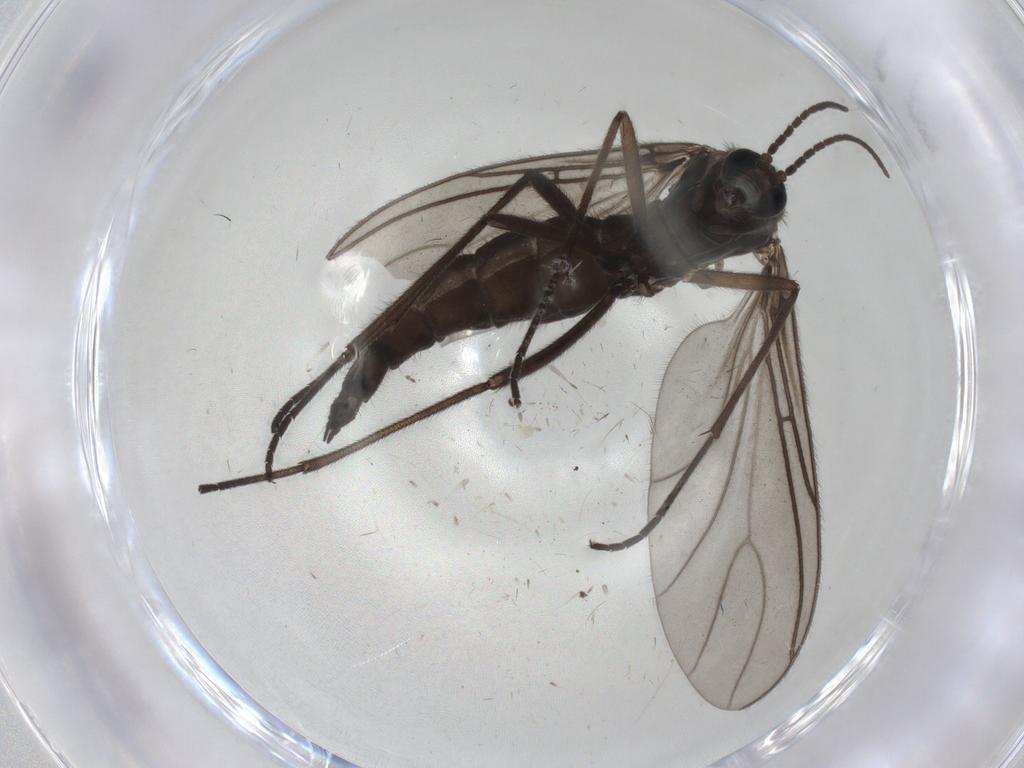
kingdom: Animalia
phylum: Arthropoda
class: Insecta
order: Diptera
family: Sciaridae
